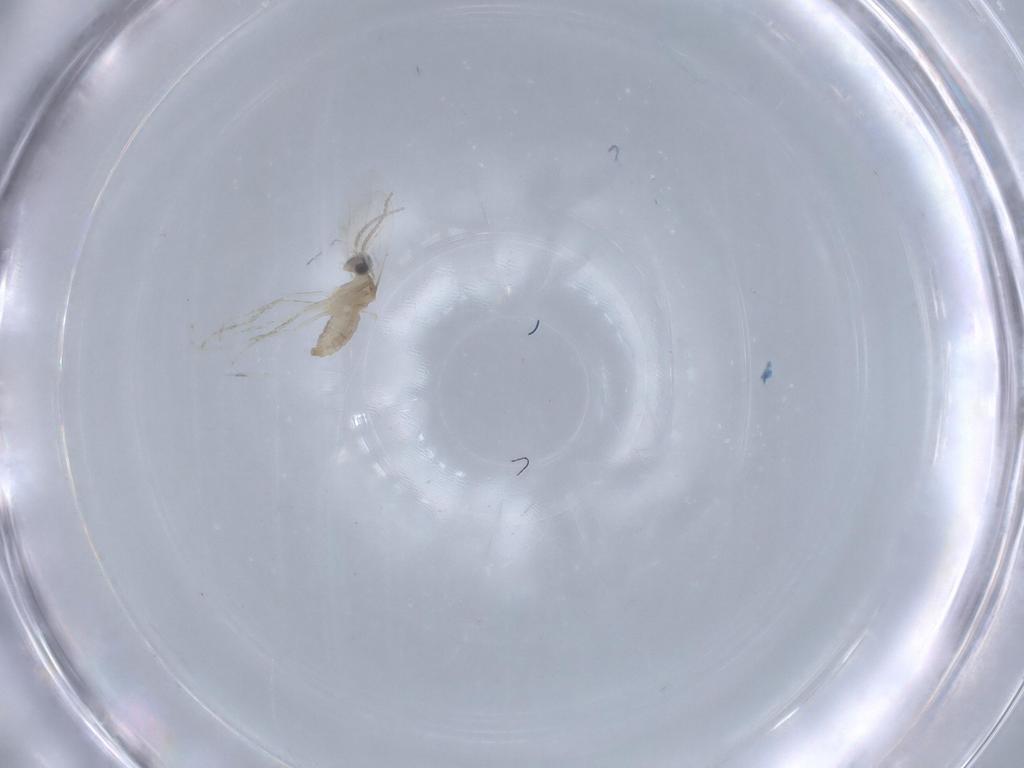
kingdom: Animalia
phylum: Arthropoda
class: Insecta
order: Diptera
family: Cecidomyiidae
